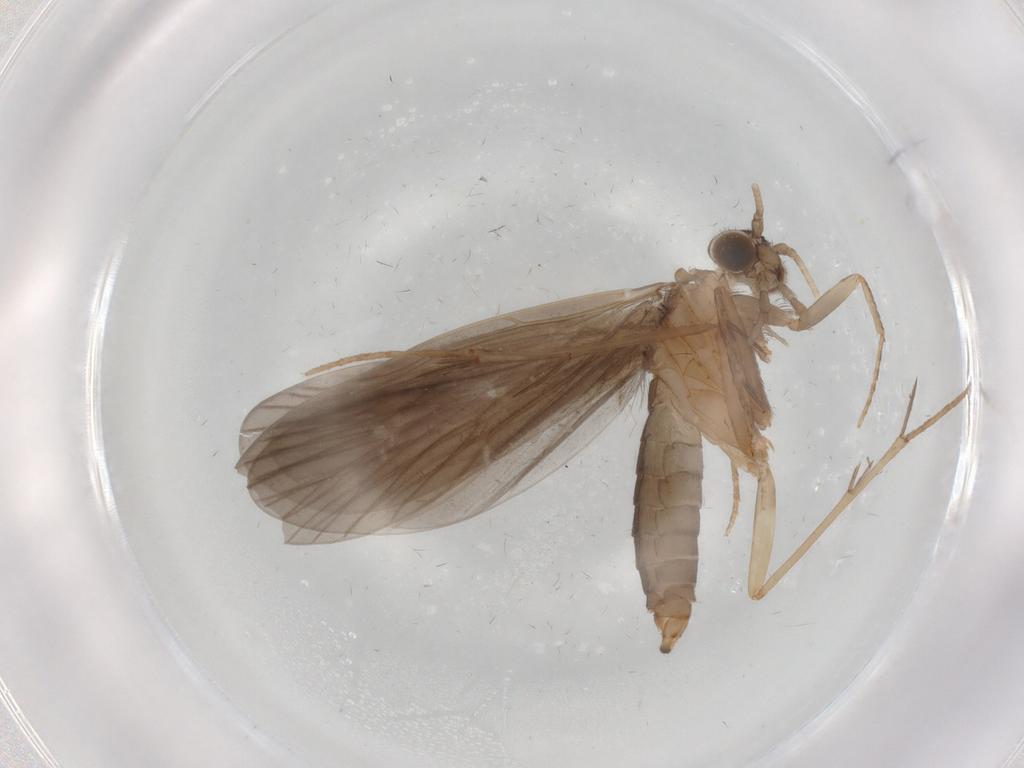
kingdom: Animalia
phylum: Arthropoda
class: Insecta
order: Trichoptera
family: Philopotamidae
